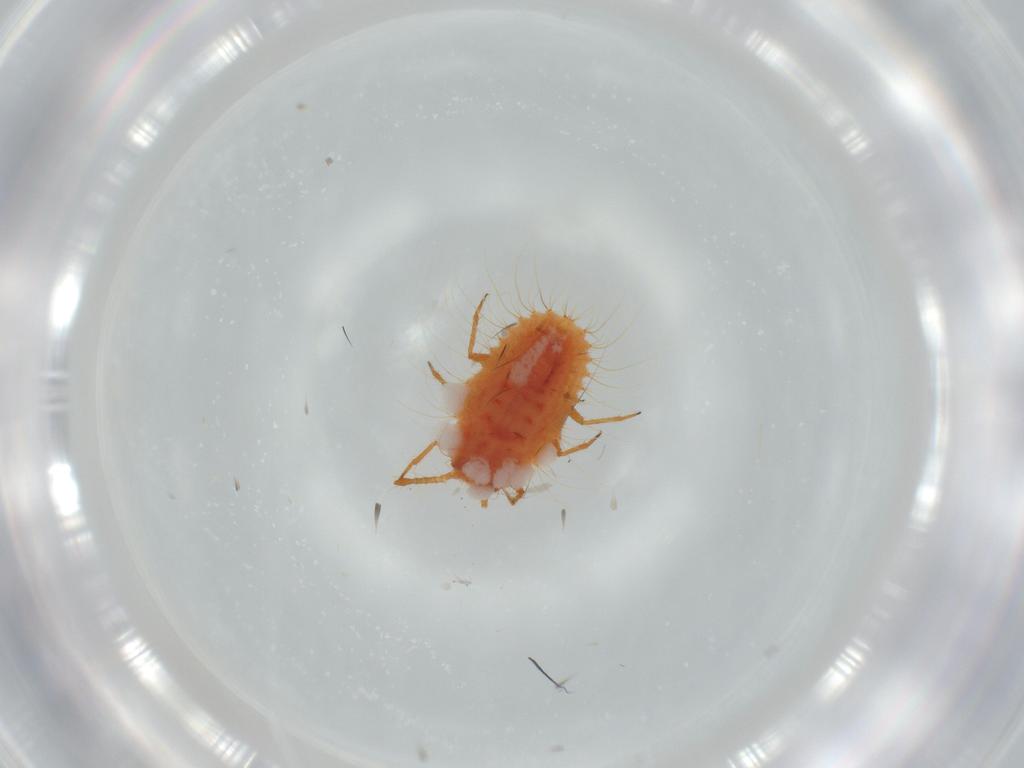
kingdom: Animalia
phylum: Arthropoda
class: Insecta
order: Hemiptera
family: Coccoidea_incertae_sedis
